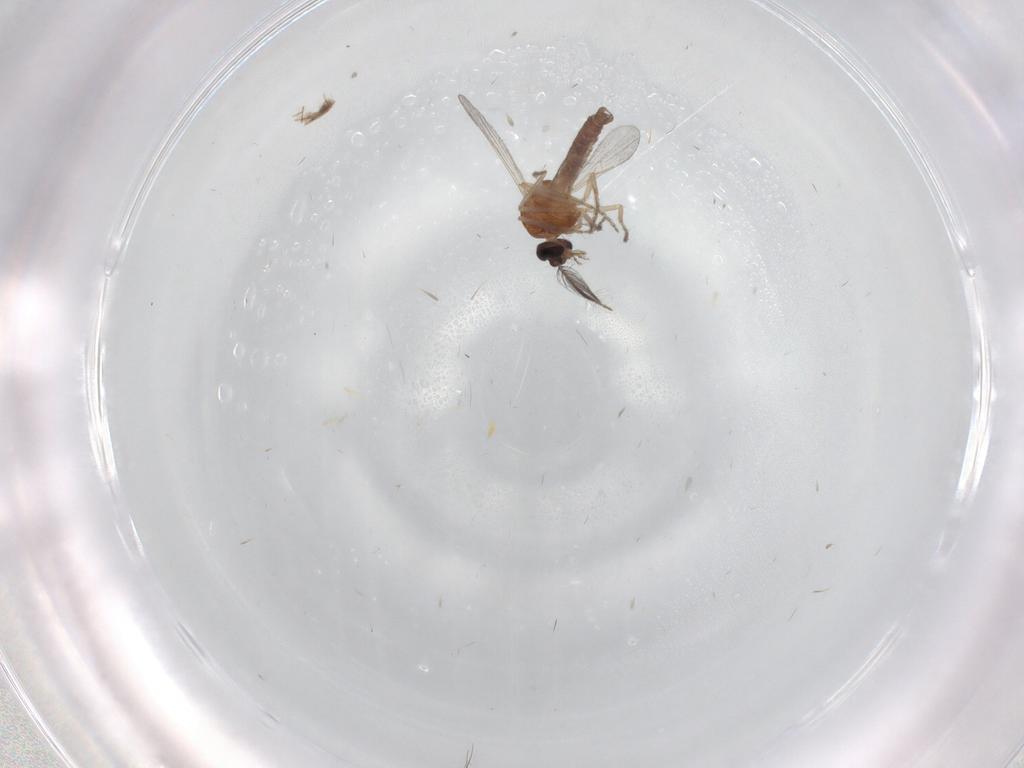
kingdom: Animalia
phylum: Arthropoda
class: Insecta
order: Diptera
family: Ceratopogonidae
